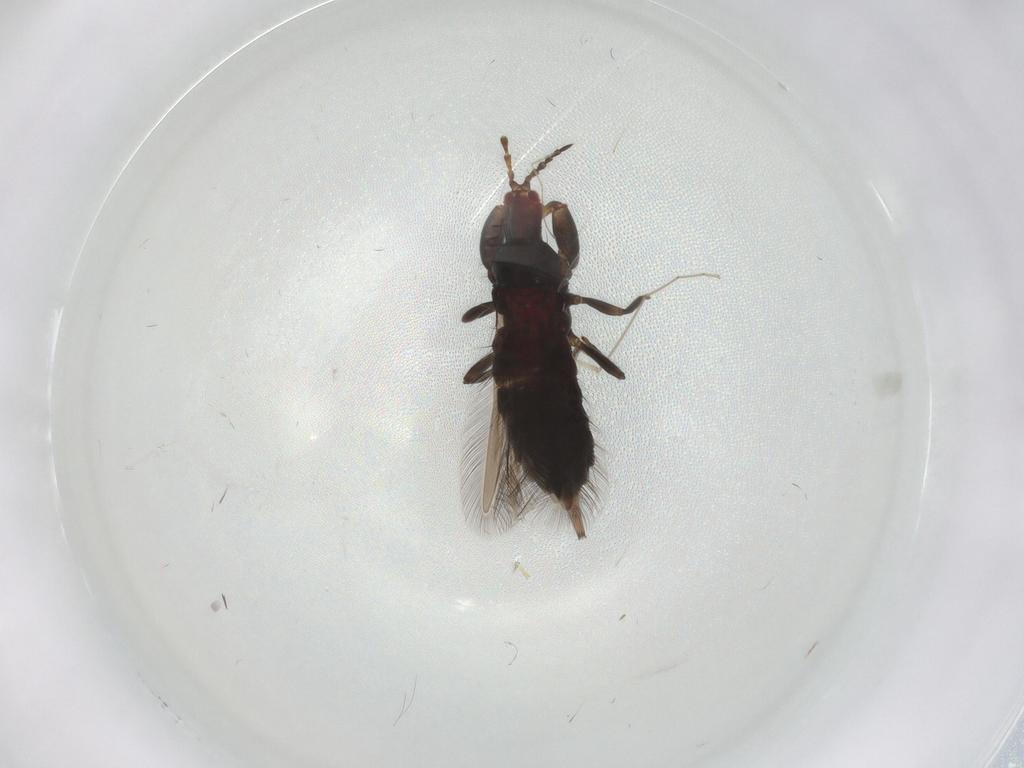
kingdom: Animalia
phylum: Arthropoda
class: Insecta
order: Thysanoptera
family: Phlaeothripidae
